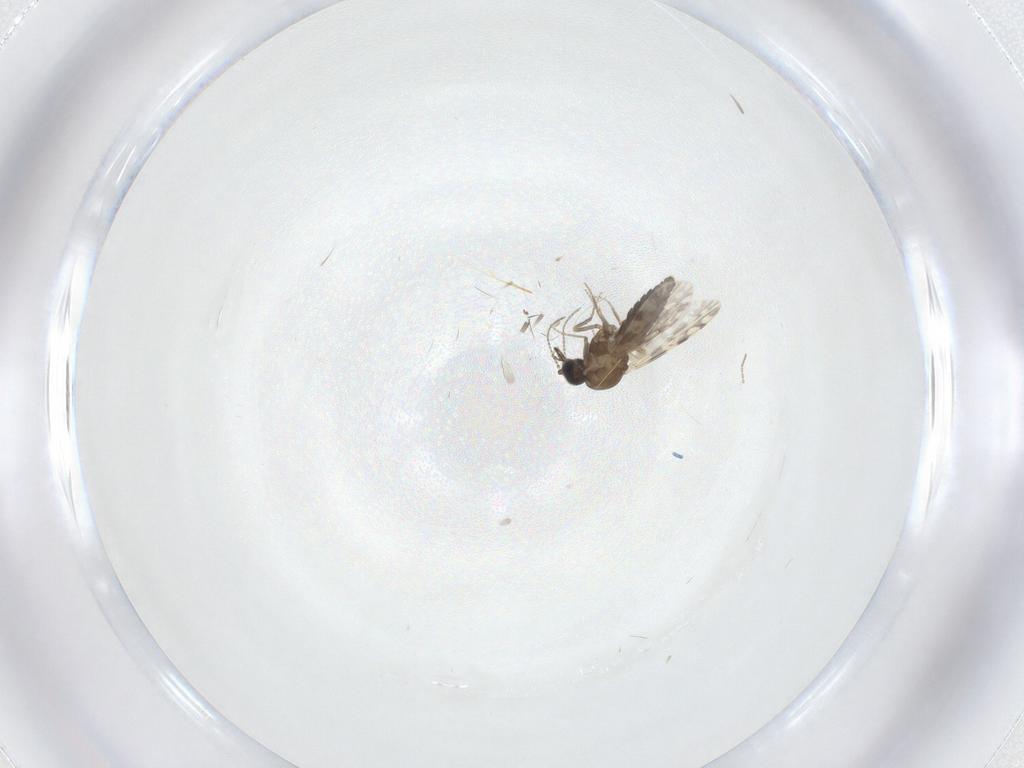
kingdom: Animalia
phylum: Arthropoda
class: Insecta
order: Diptera
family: Ceratopogonidae
